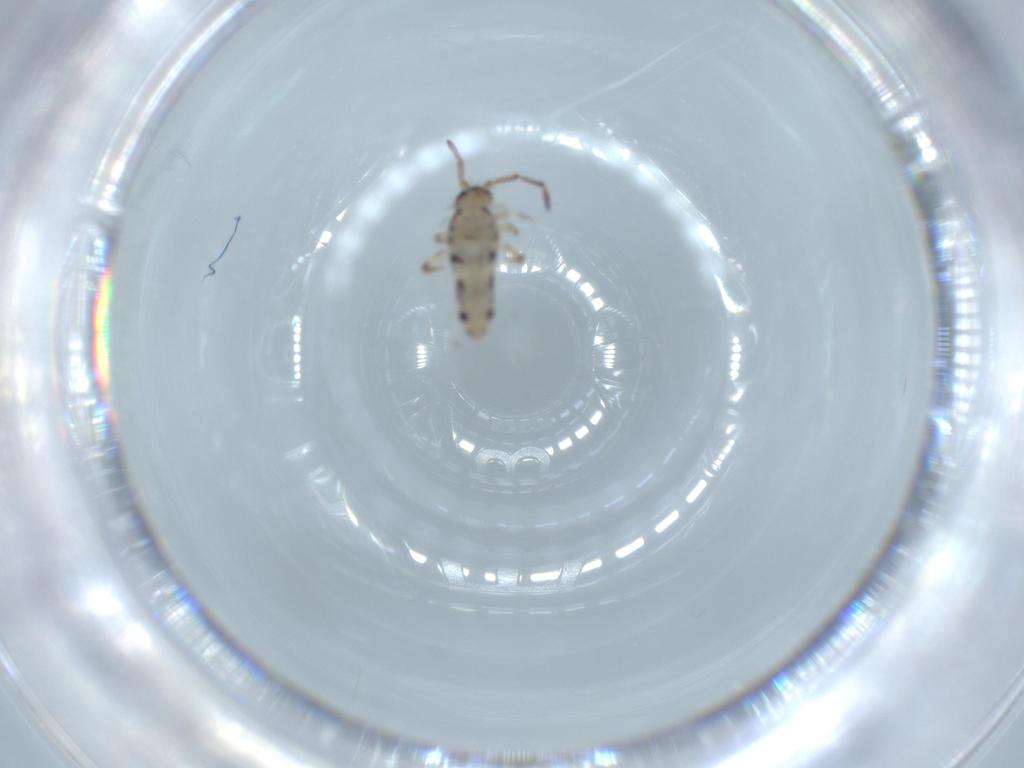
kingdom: Animalia
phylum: Arthropoda
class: Collembola
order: Entomobryomorpha
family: Entomobryidae
